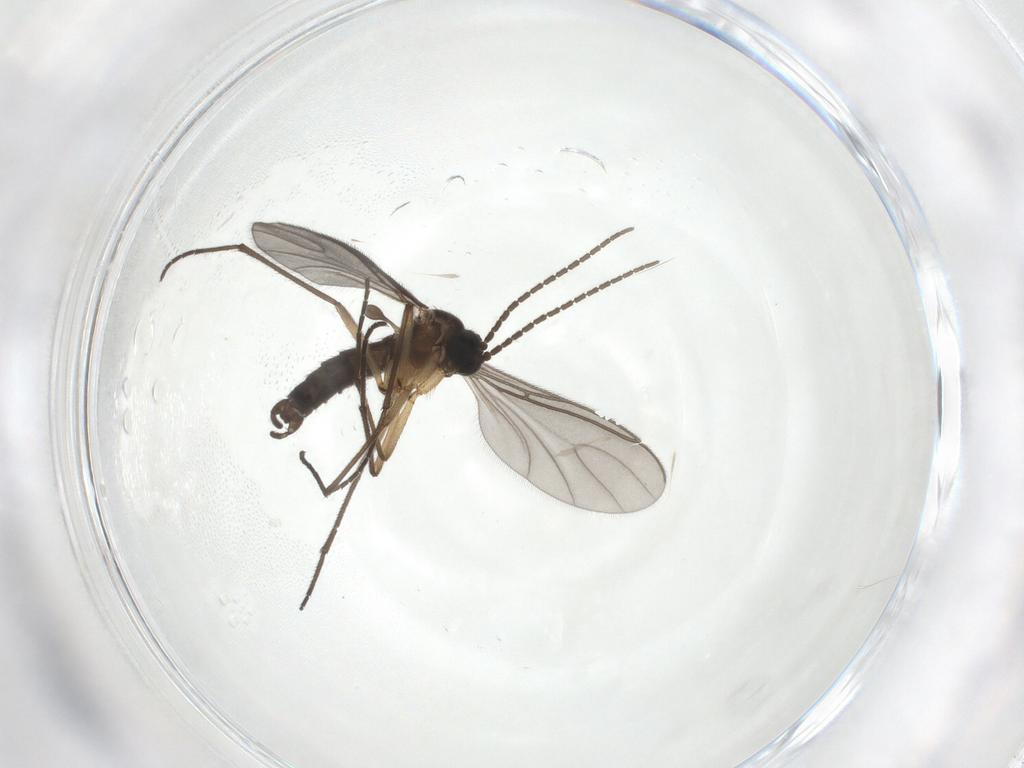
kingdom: Animalia
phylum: Arthropoda
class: Insecta
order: Diptera
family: Sciaridae
